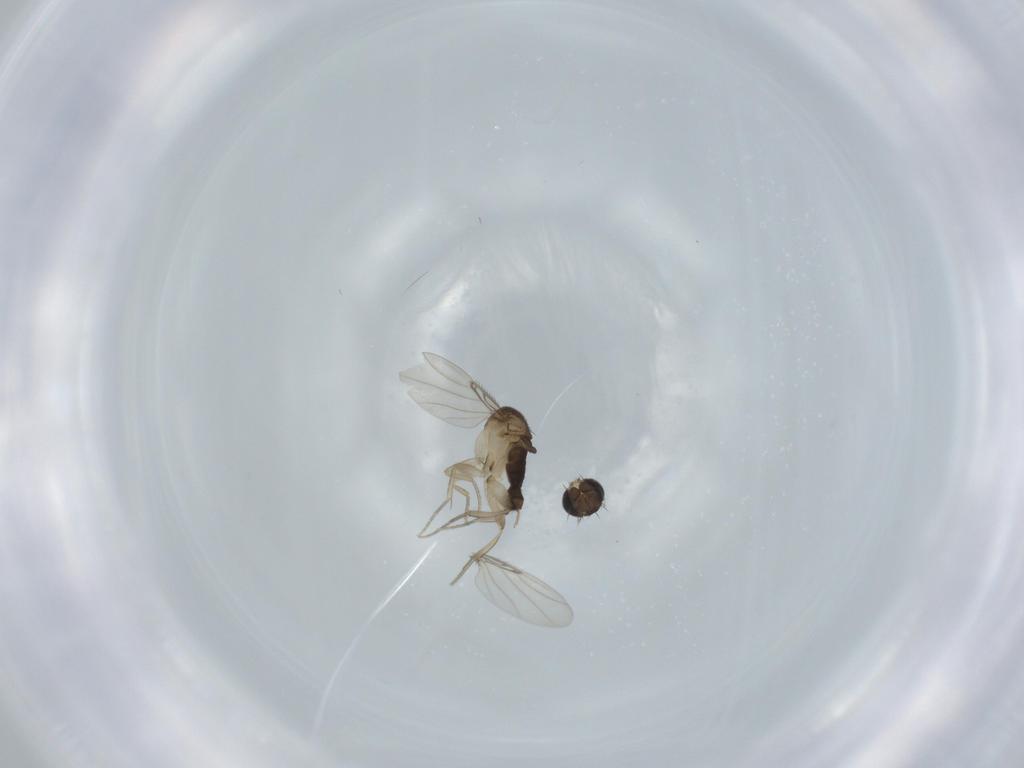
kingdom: Animalia
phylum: Arthropoda
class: Insecta
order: Diptera
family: Phoridae
